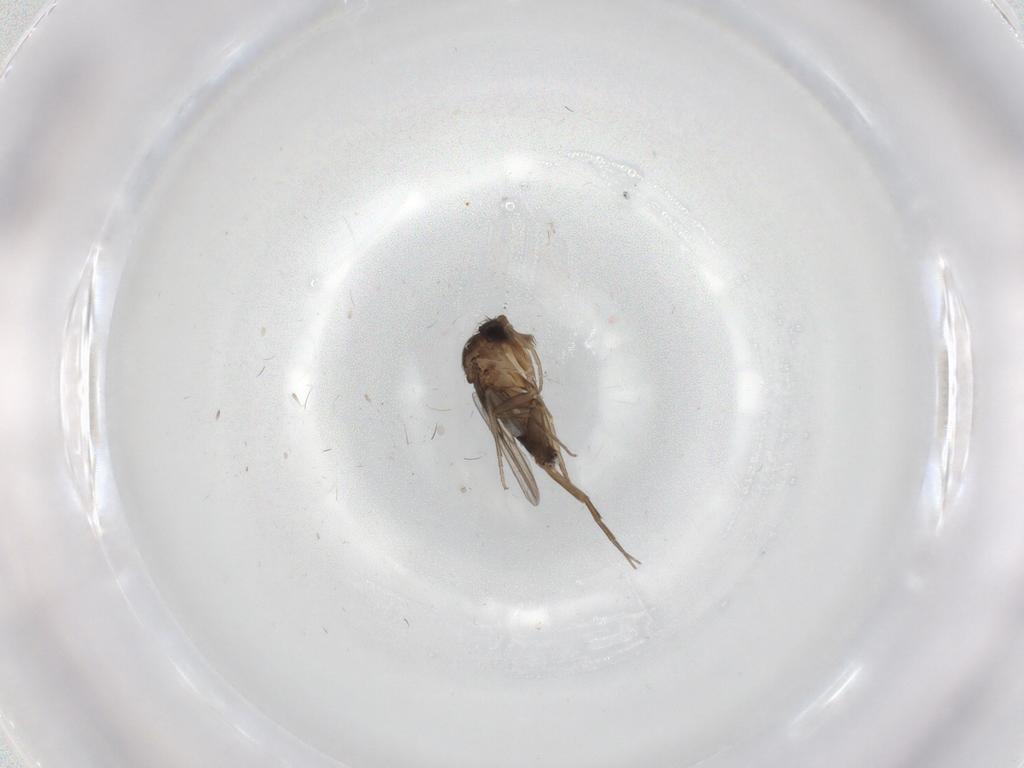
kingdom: Animalia
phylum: Arthropoda
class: Insecta
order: Diptera
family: Phoridae
